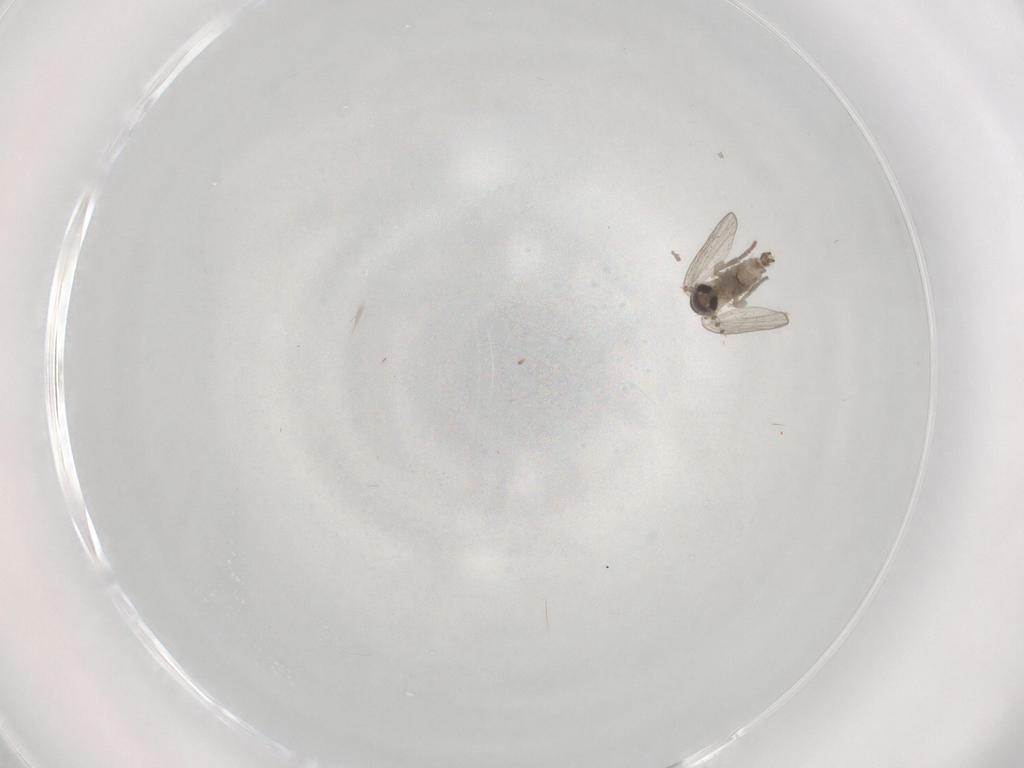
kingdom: Animalia
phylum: Arthropoda
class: Insecta
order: Diptera
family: Psychodidae
